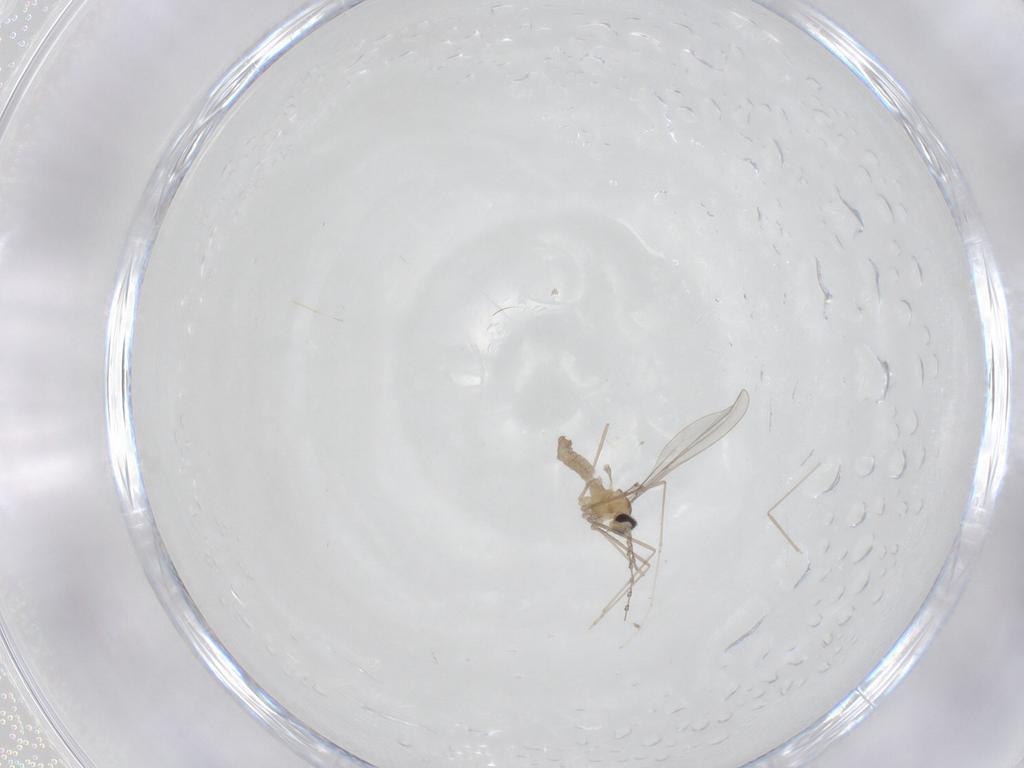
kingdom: Animalia
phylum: Arthropoda
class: Insecta
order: Diptera
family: Cecidomyiidae
